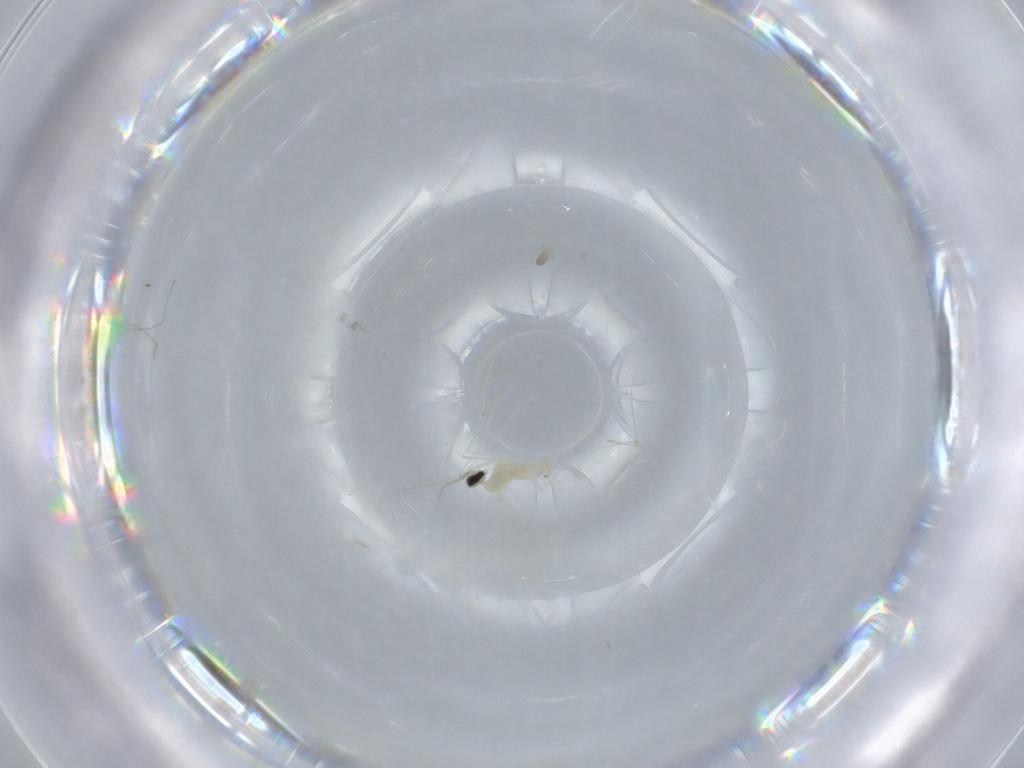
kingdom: Animalia
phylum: Arthropoda
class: Insecta
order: Diptera
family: Cecidomyiidae
